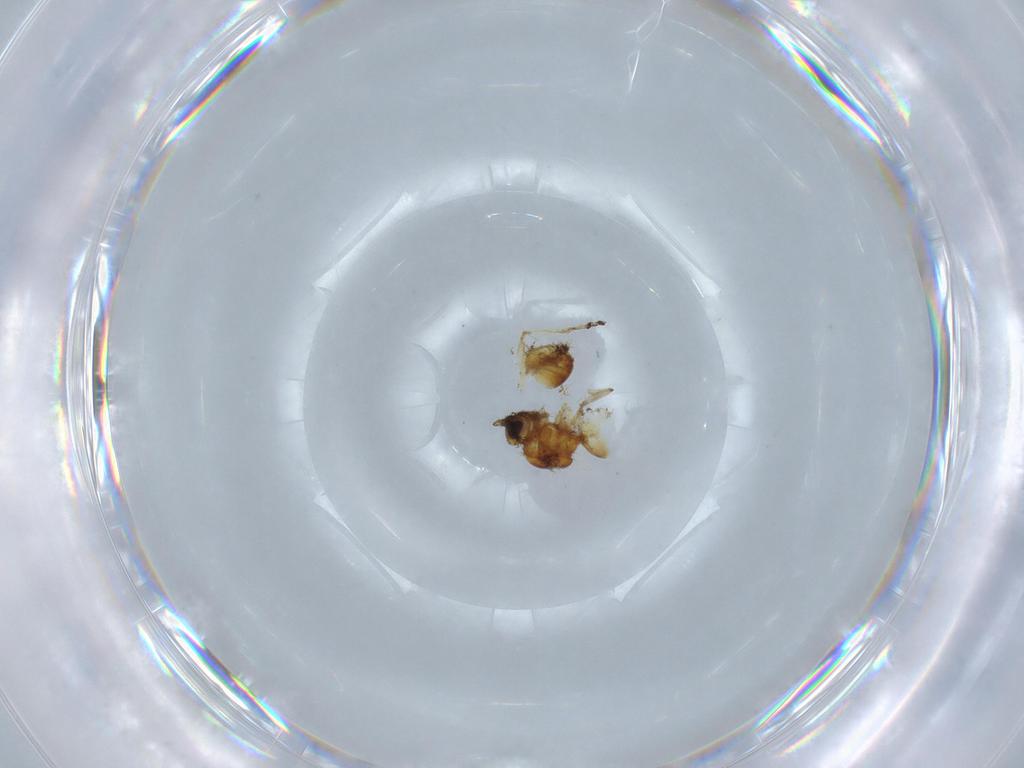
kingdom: Animalia
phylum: Arthropoda
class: Insecta
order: Hymenoptera
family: Figitidae
